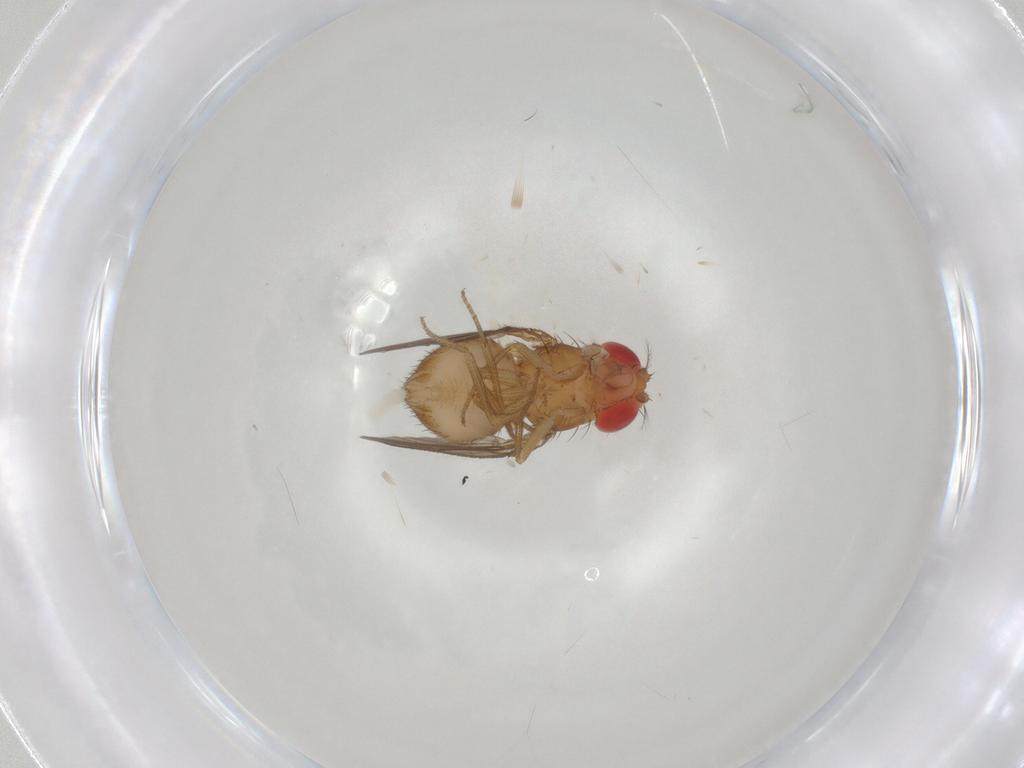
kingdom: Animalia
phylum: Arthropoda
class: Insecta
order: Diptera
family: Drosophilidae
